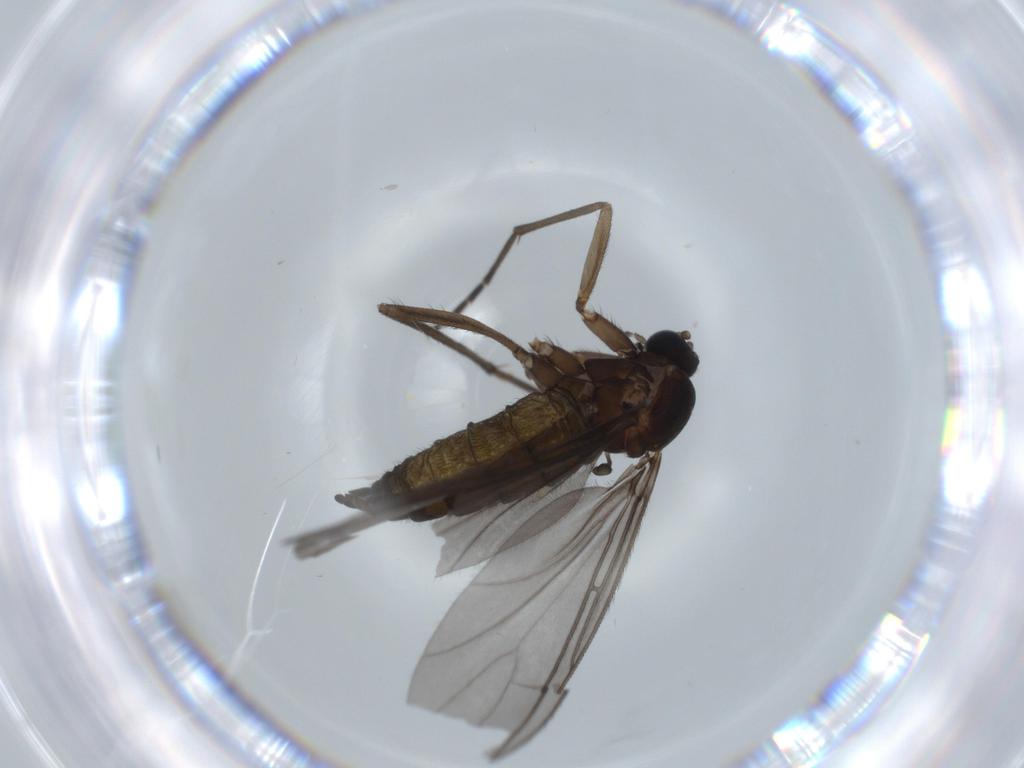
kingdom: Animalia
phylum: Arthropoda
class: Insecta
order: Diptera
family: Sciaridae
